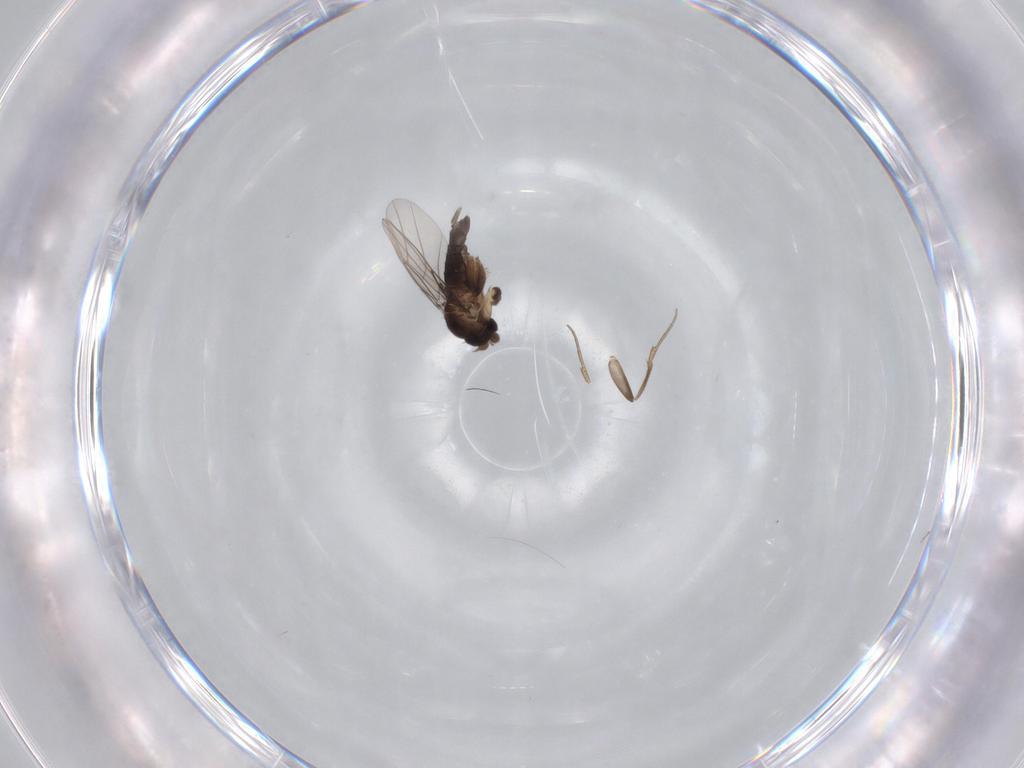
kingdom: Animalia
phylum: Arthropoda
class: Insecta
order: Diptera
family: Phoridae
